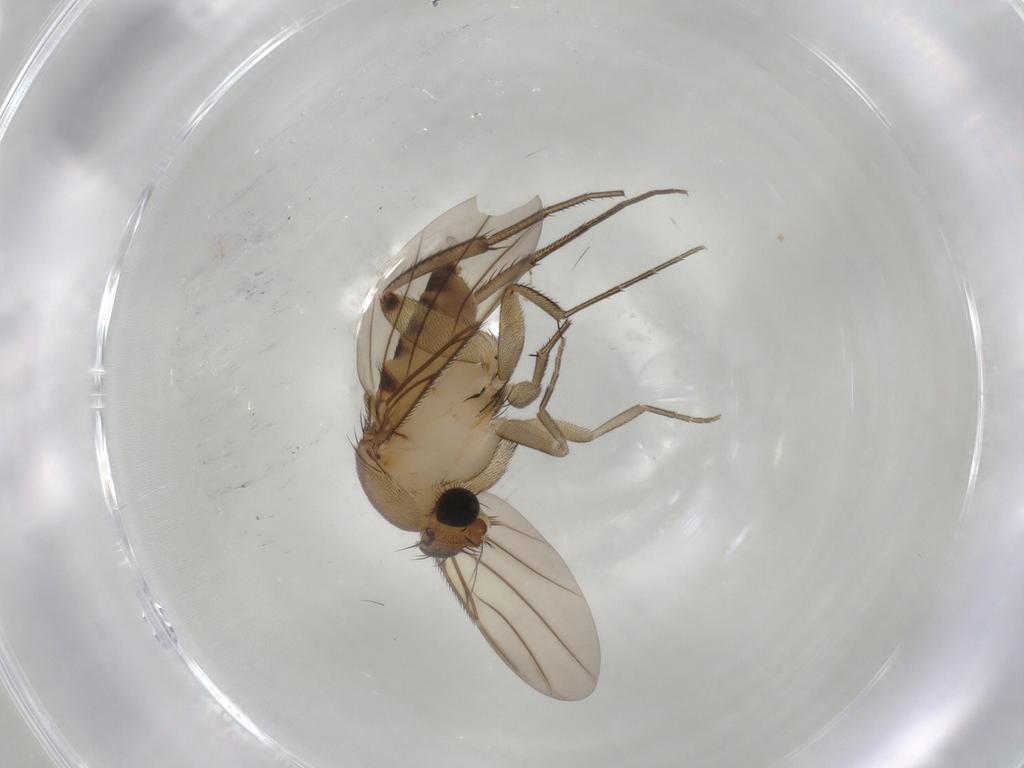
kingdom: Animalia
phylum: Arthropoda
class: Insecta
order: Diptera
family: Phoridae
